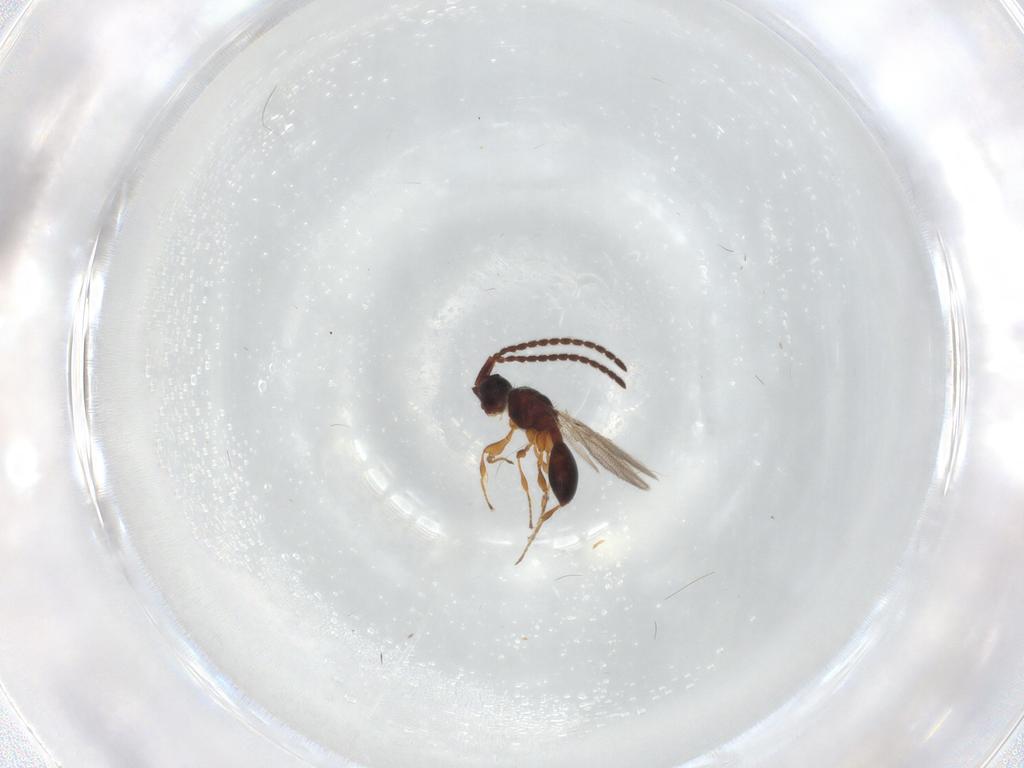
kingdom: Animalia
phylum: Arthropoda
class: Insecta
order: Hymenoptera
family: Diapriidae
